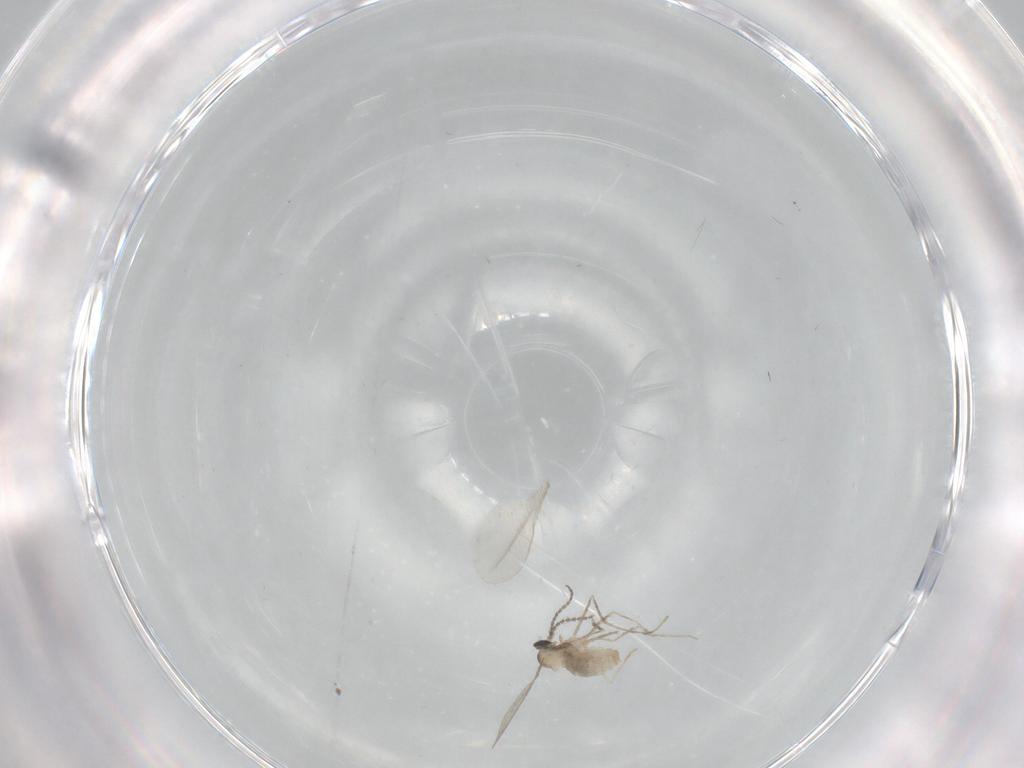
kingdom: Animalia
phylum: Arthropoda
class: Insecta
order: Diptera
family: Cecidomyiidae
